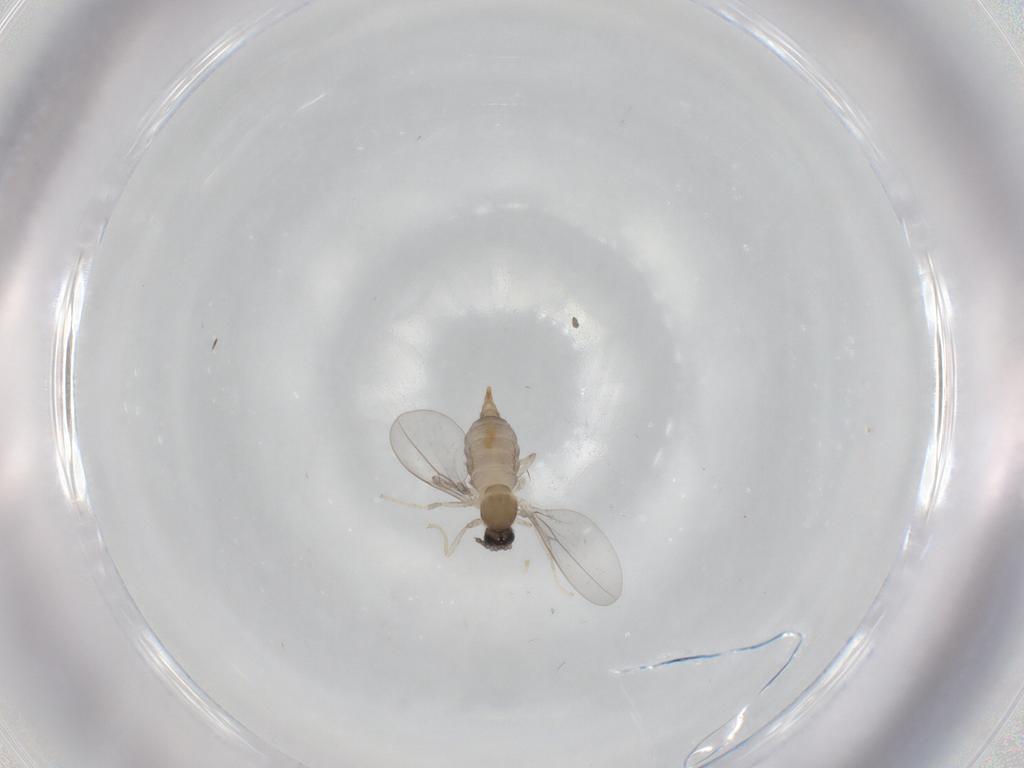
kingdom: Animalia
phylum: Arthropoda
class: Insecta
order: Diptera
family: Cecidomyiidae
